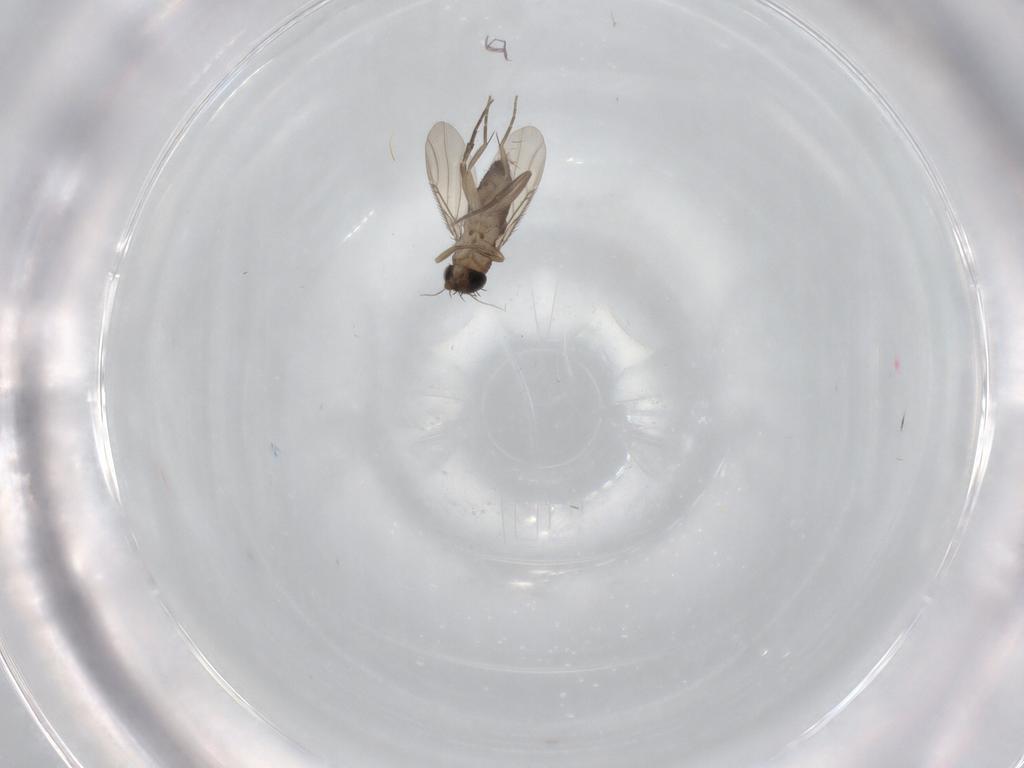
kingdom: Animalia
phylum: Arthropoda
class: Insecta
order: Diptera
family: Phoridae
